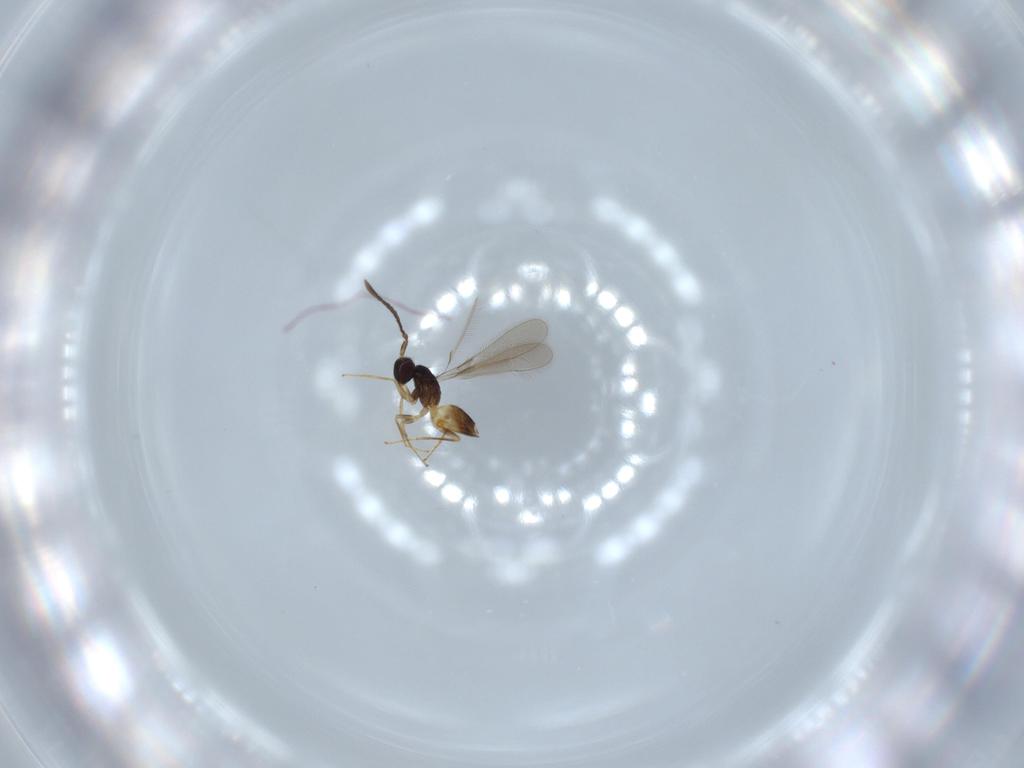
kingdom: Animalia
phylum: Arthropoda
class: Insecta
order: Hymenoptera
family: Mymaridae
